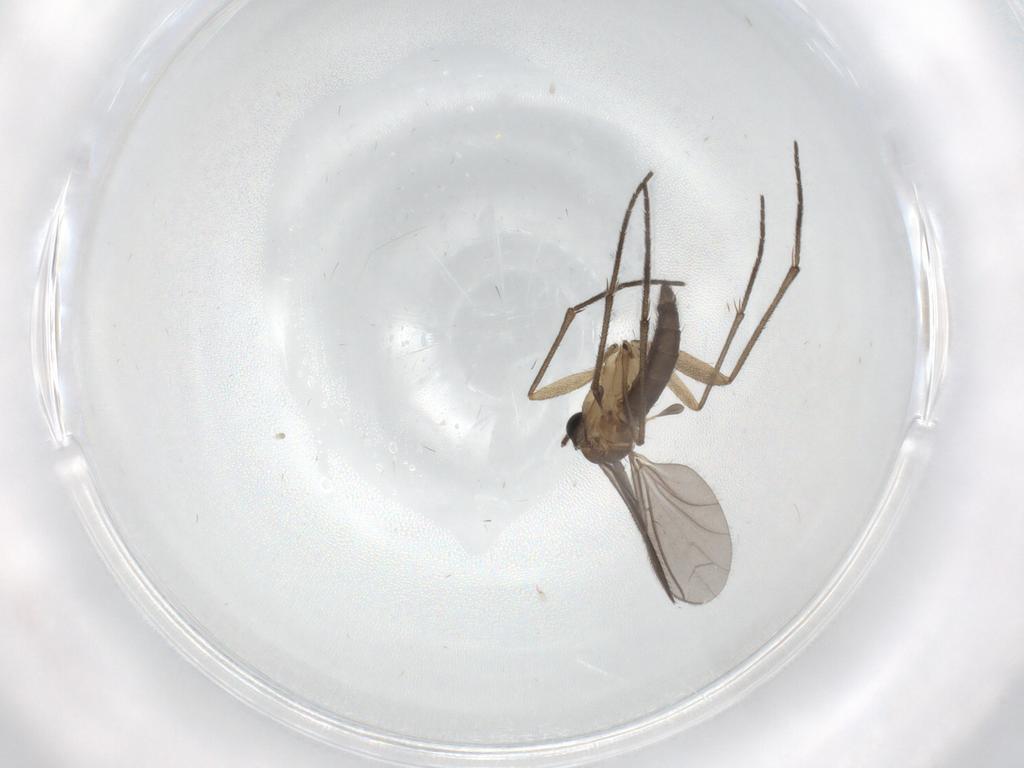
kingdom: Animalia
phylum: Arthropoda
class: Insecta
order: Diptera
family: Sciaridae
